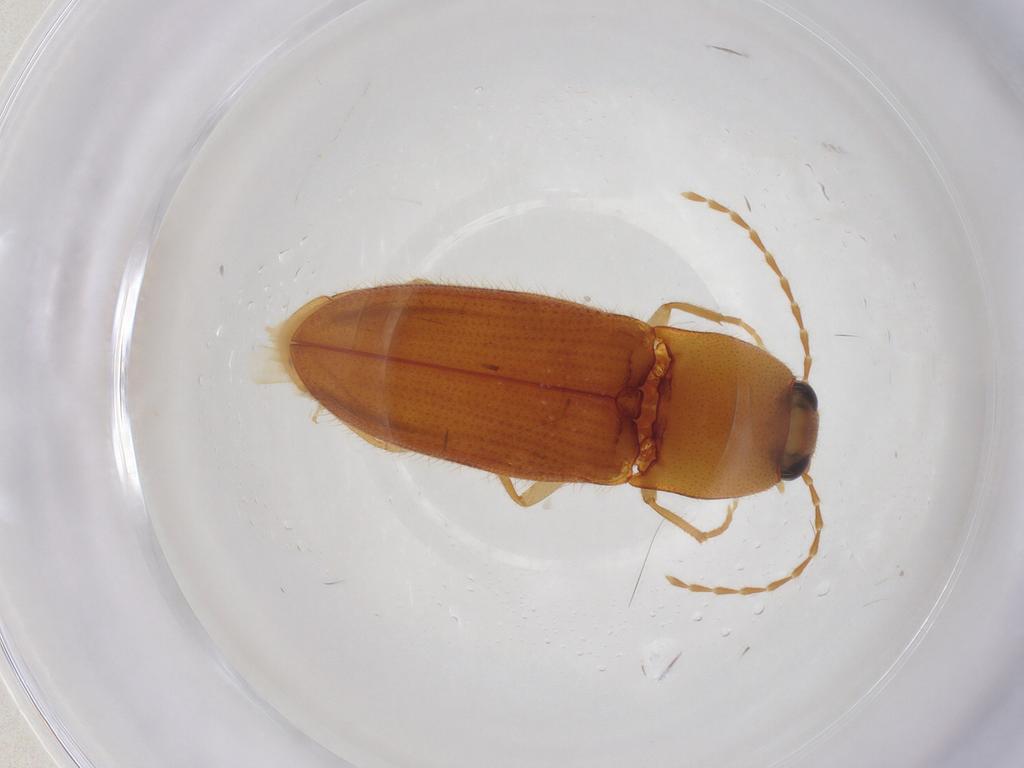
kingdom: Animalia
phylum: Arthropoda
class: Insecta
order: Coleoptera
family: Elateridae
